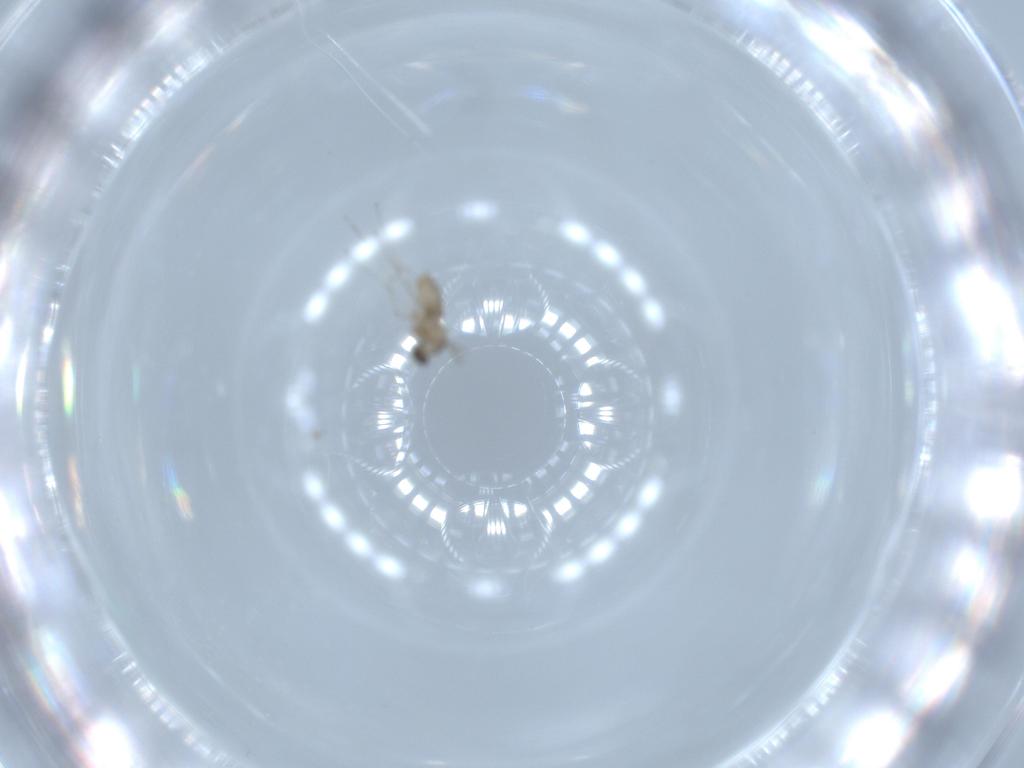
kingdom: Animalia
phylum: Arthropoda
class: Insecta
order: Diptera
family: Cecidomyiidae
